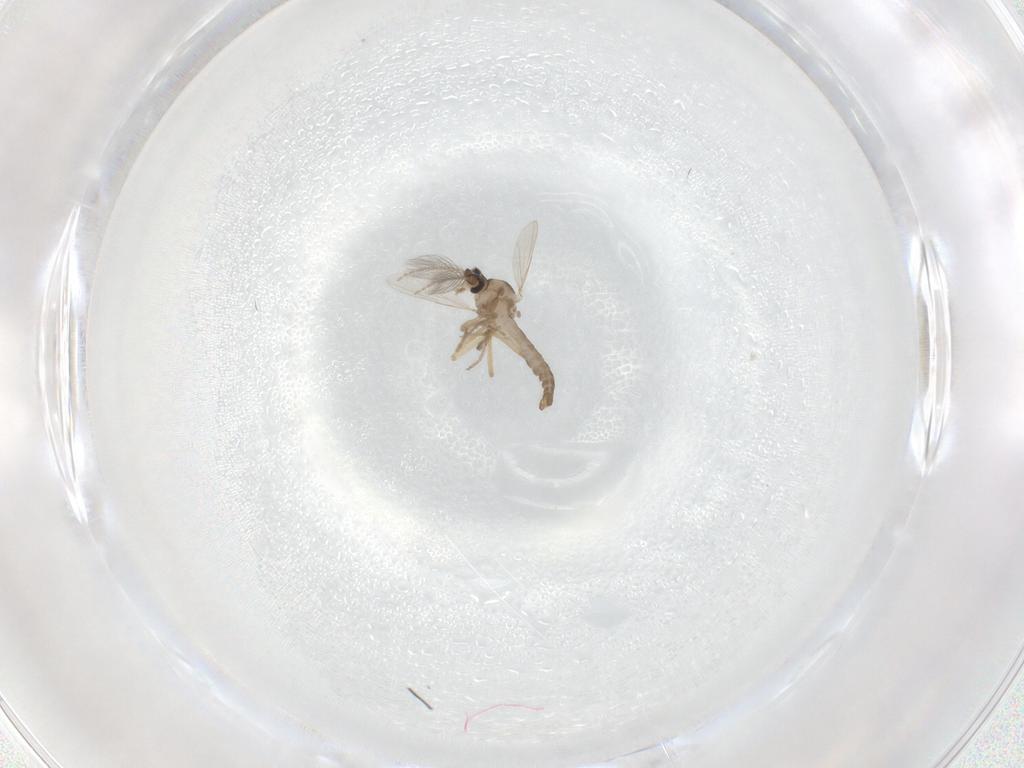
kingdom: Animalia
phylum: Arthropoda
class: Insecta
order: Diptera
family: Ceratopogonidae
